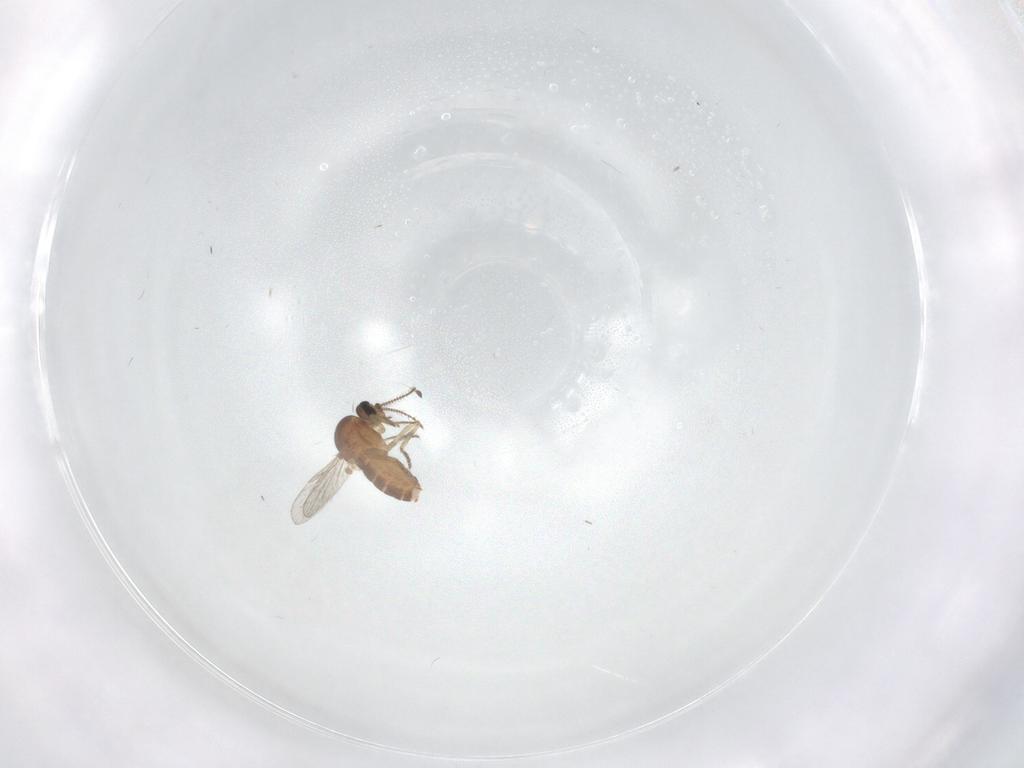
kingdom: Animalia
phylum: Arthropoda
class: Insecta
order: Diptera
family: Ceratopogonidae
